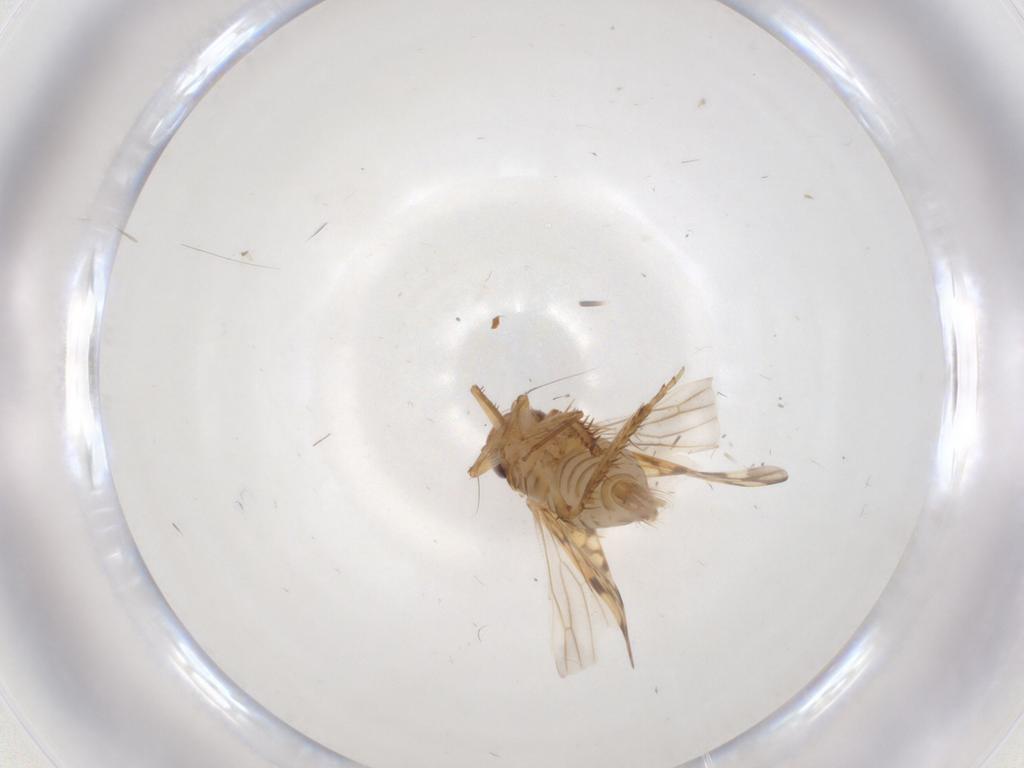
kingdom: Animalia
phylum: Arthropoda
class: Insecta
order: Hemiptera
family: Cicadellidae
